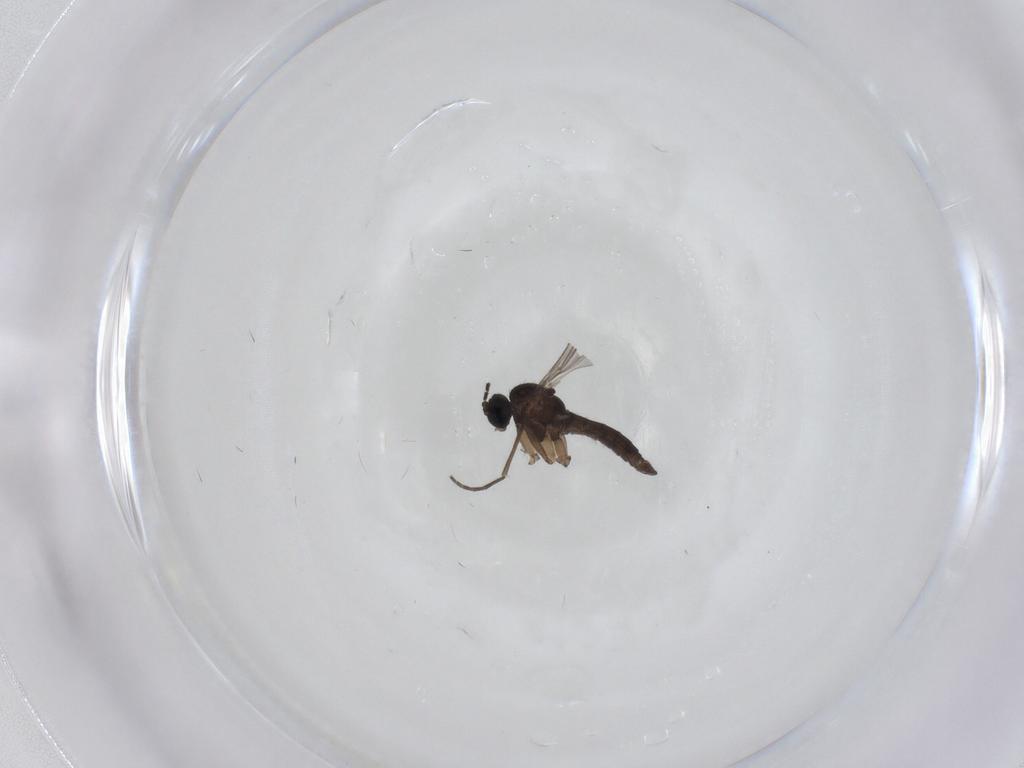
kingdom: Animalia
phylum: Arthropoda
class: Insecta
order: Diptera
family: Sciaridae
